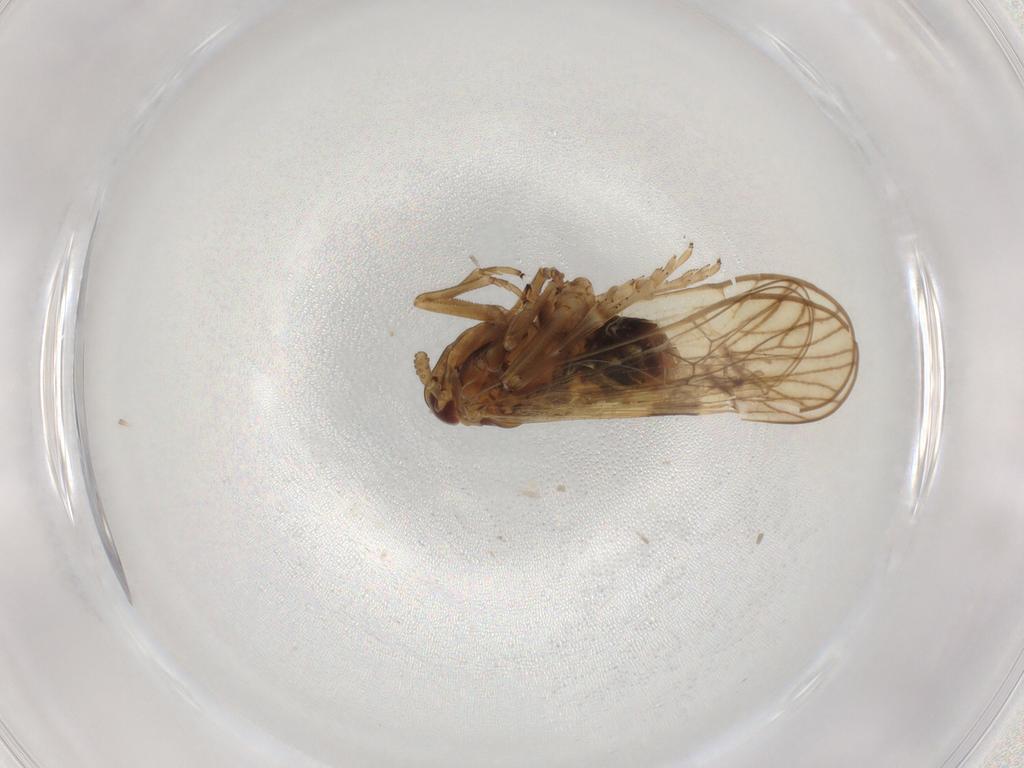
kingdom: Animalia
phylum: Arthropoda
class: Insecta
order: Hemiptera
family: Delphacidae
